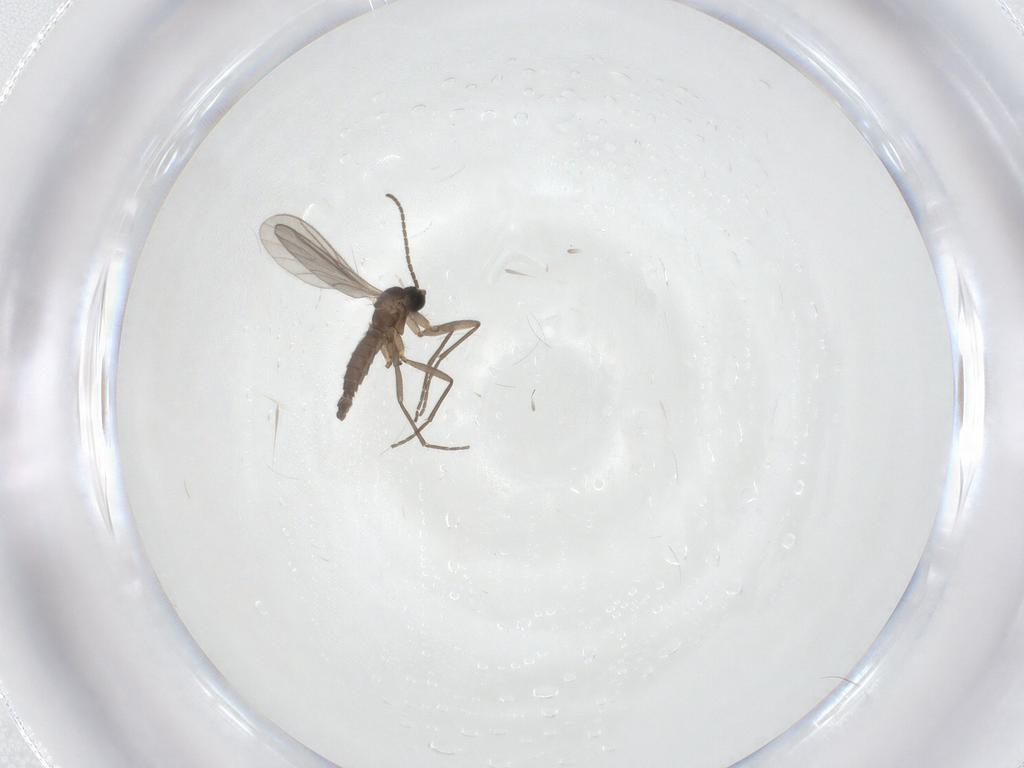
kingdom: Animalia
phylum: Arthropoda
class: Insecta
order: Diptera
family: Chironomidae
